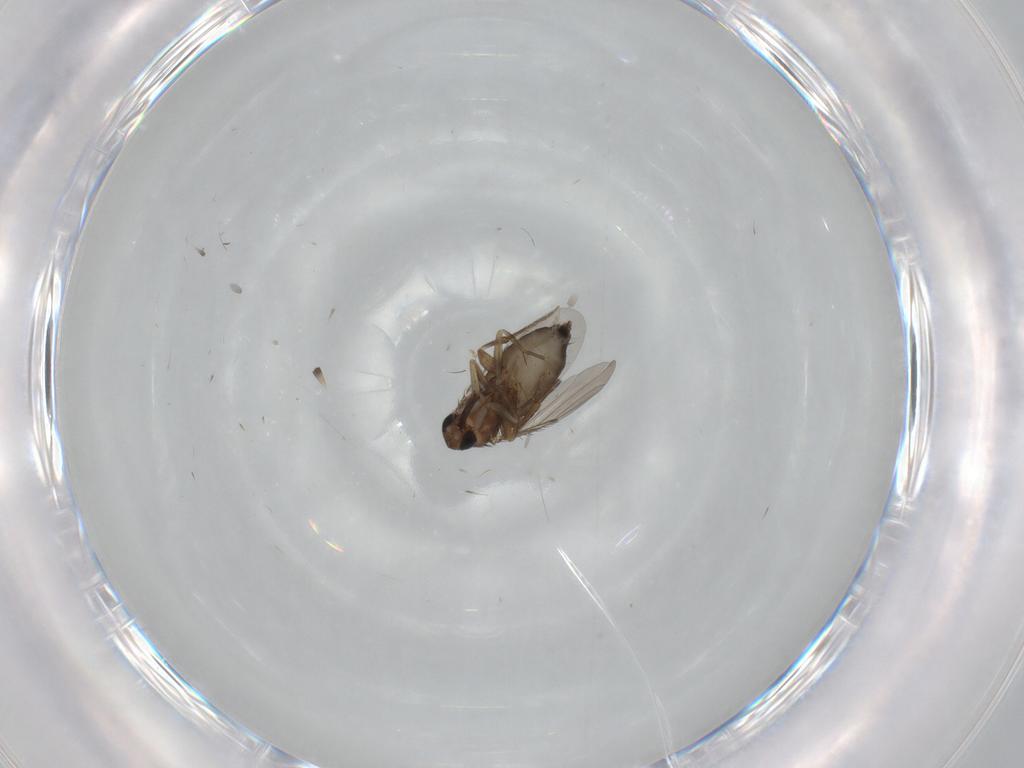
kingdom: Animalia
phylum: Arthropoda
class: Insecta
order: Diptera
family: Phoridae
